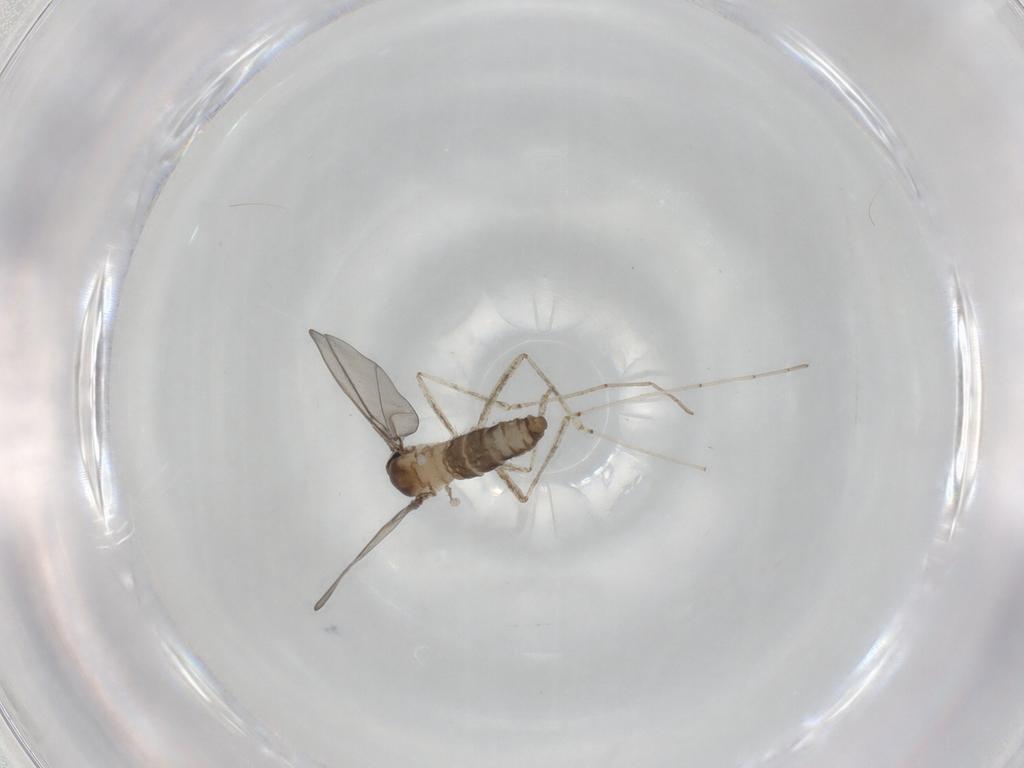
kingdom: Animalia
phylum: Arthropoda
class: Insecta
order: Diptera
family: Cecidomyiidae
